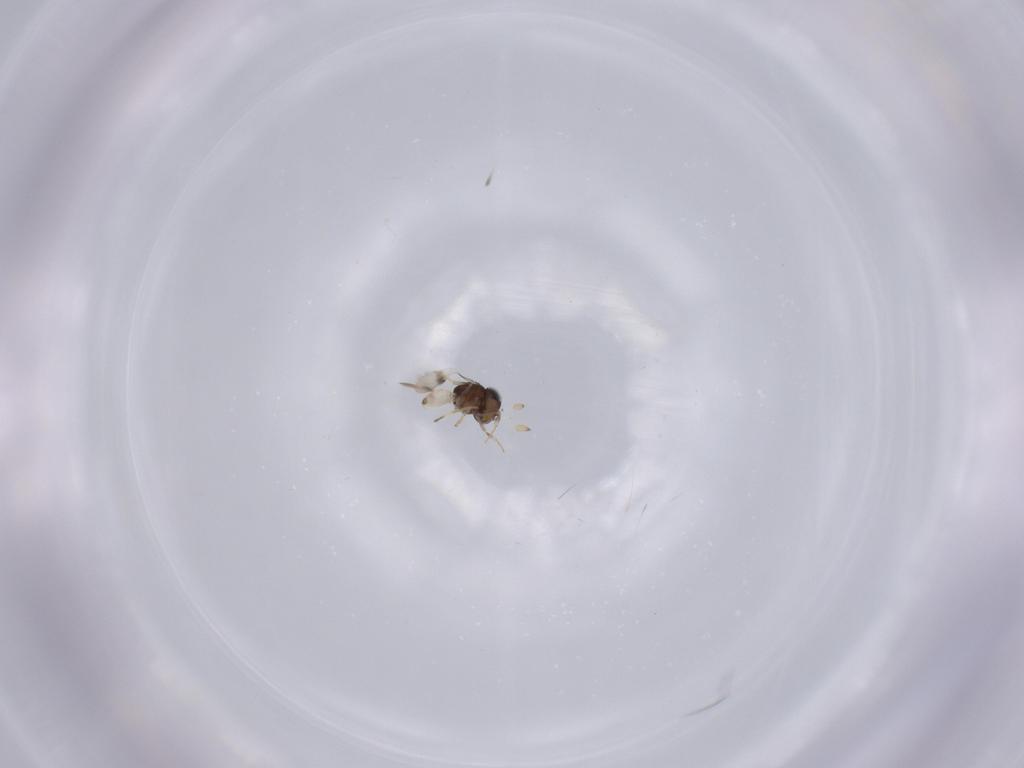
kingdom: Animalia
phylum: Arthropoda
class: Insecta
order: Hymenoptera
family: Scelionidae
